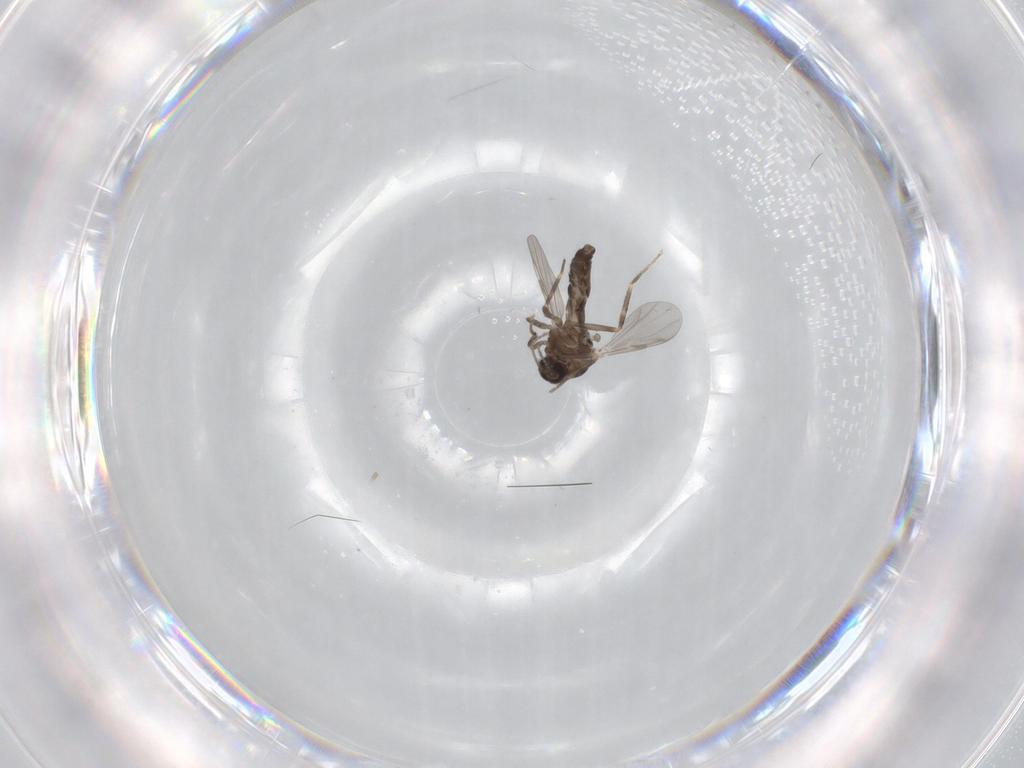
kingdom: Animalia
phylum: Arthropoda
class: Insecta
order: Diptera
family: Ceratopogonidae
